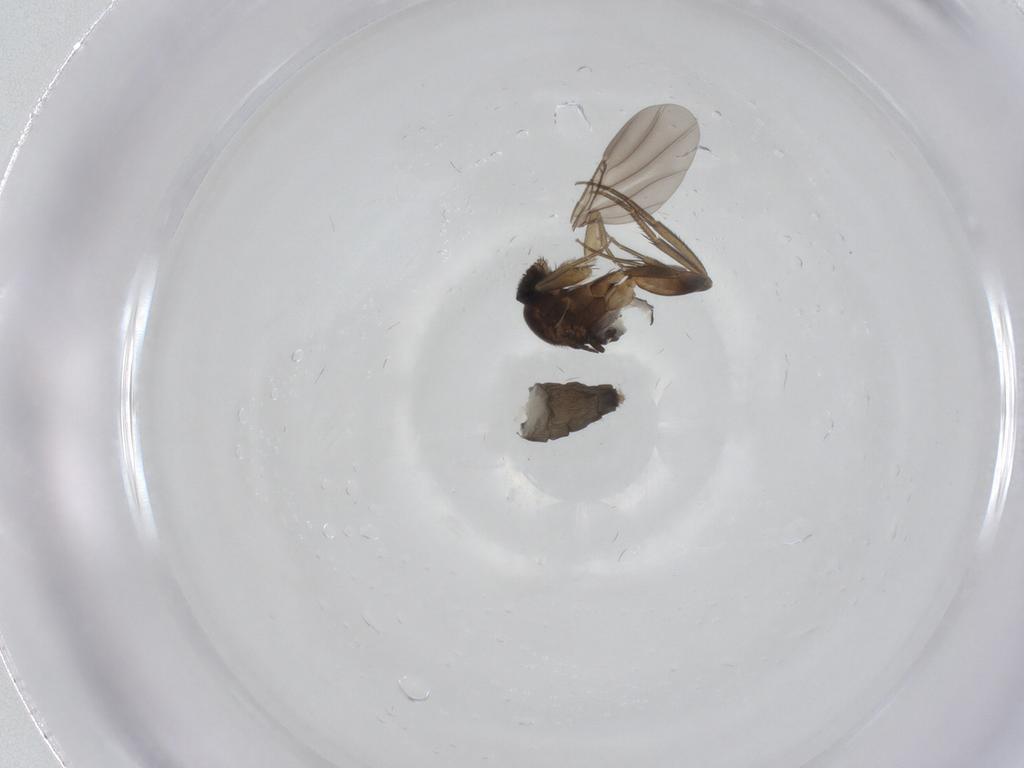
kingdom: Animalia
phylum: Arthropoda
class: Insecta
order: Diptera
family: Phoridae
